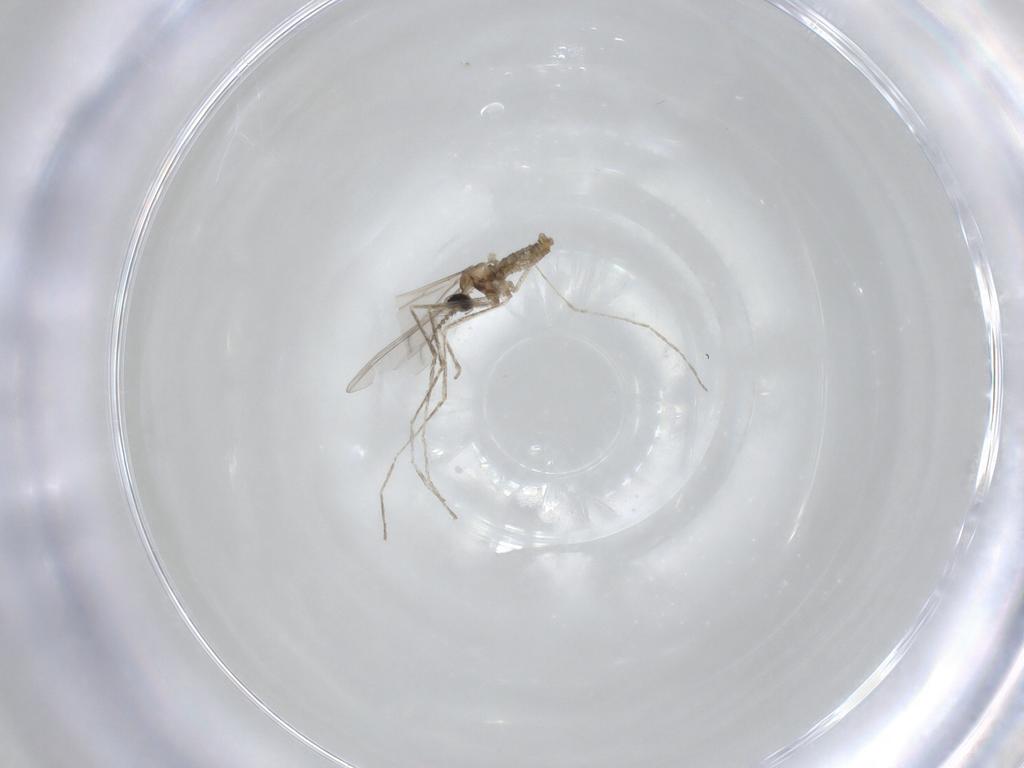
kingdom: Animalia
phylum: Arthropoda
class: Insecta
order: Diptera
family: Cecidomyiidae
